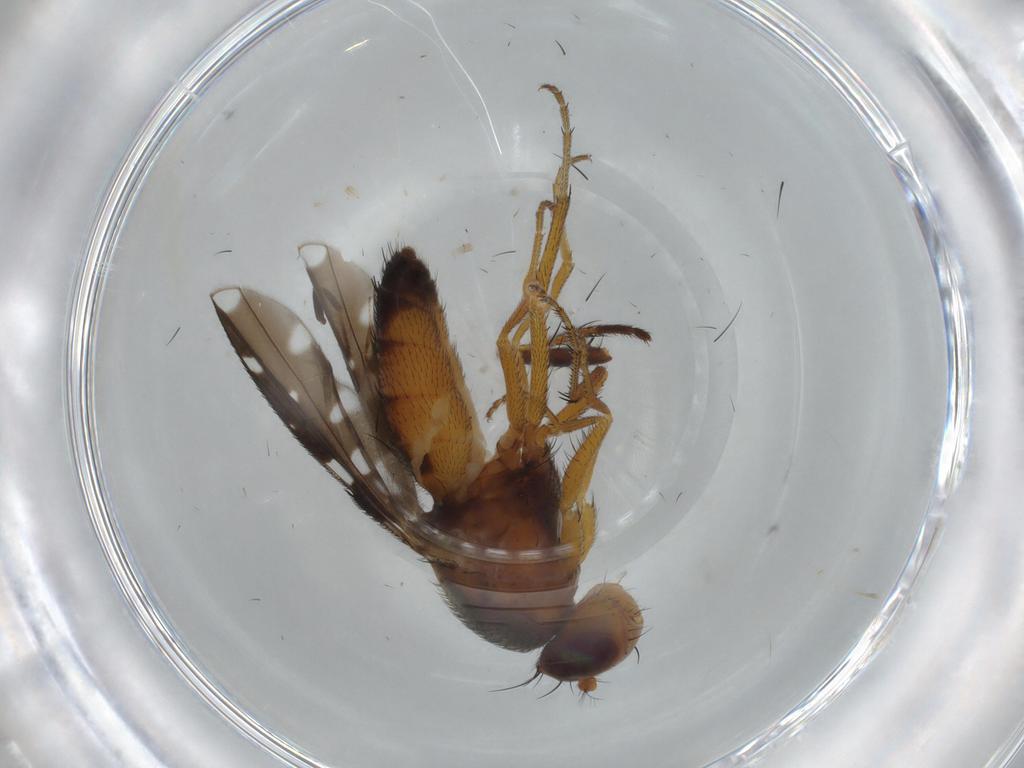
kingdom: Animalia
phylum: Arthropoda
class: Insecta
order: Diptera
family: Ephydridae
